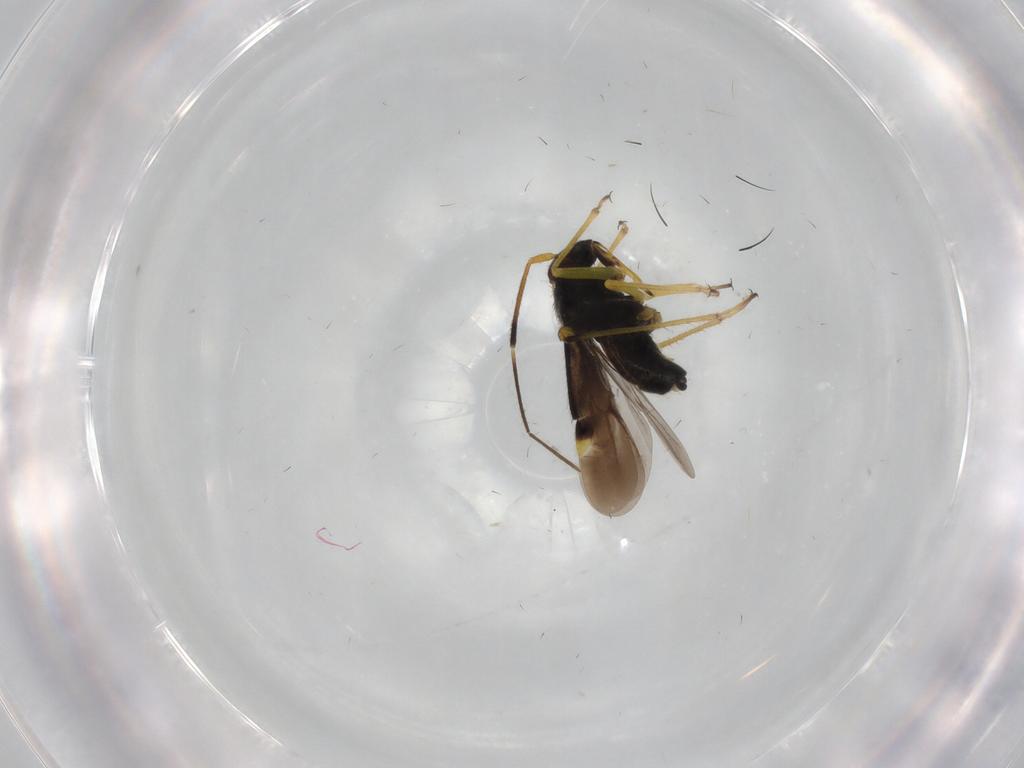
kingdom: Animalia
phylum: Arthropoda
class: Insecta
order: Hemiptera
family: Miridae
